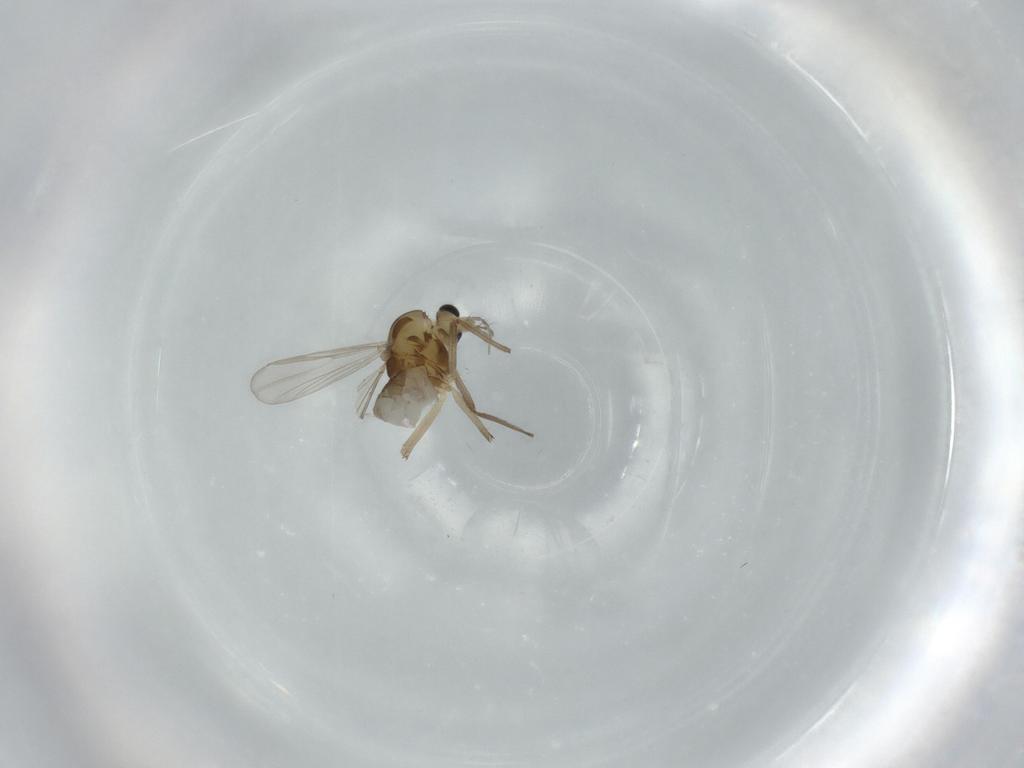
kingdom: Animalia
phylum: Arthropoda
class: Insecta
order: Diptera
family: Chironomidae
